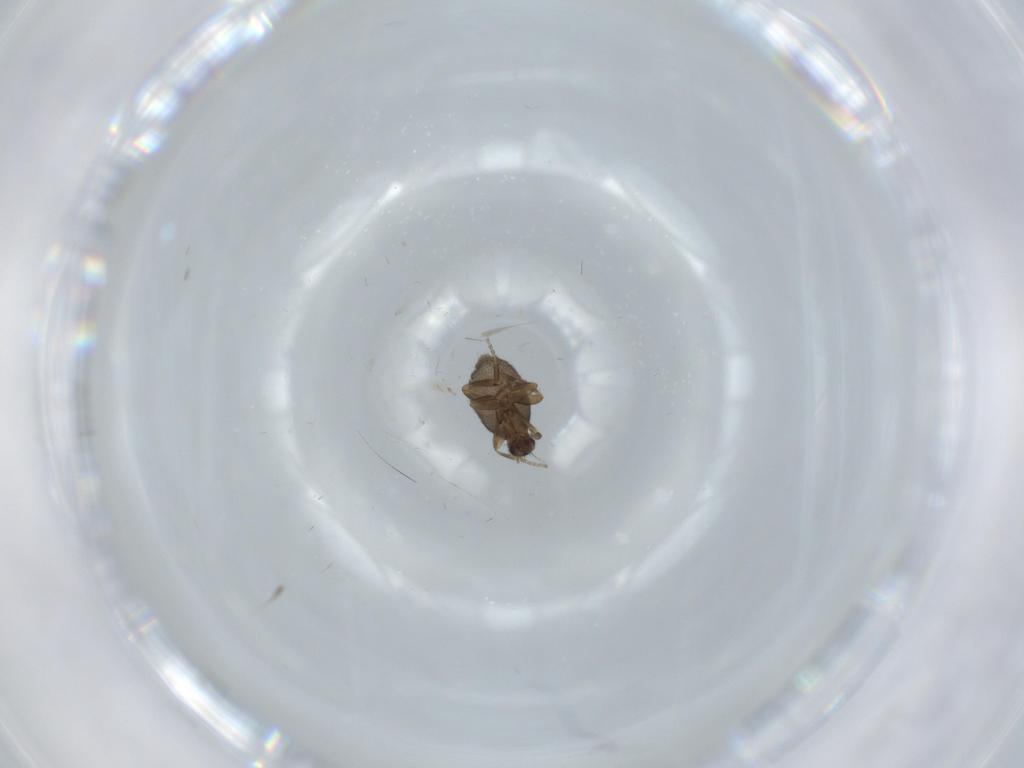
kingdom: Animalia
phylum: Arthropoda
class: Insecta
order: Diptera
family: Phoridae
